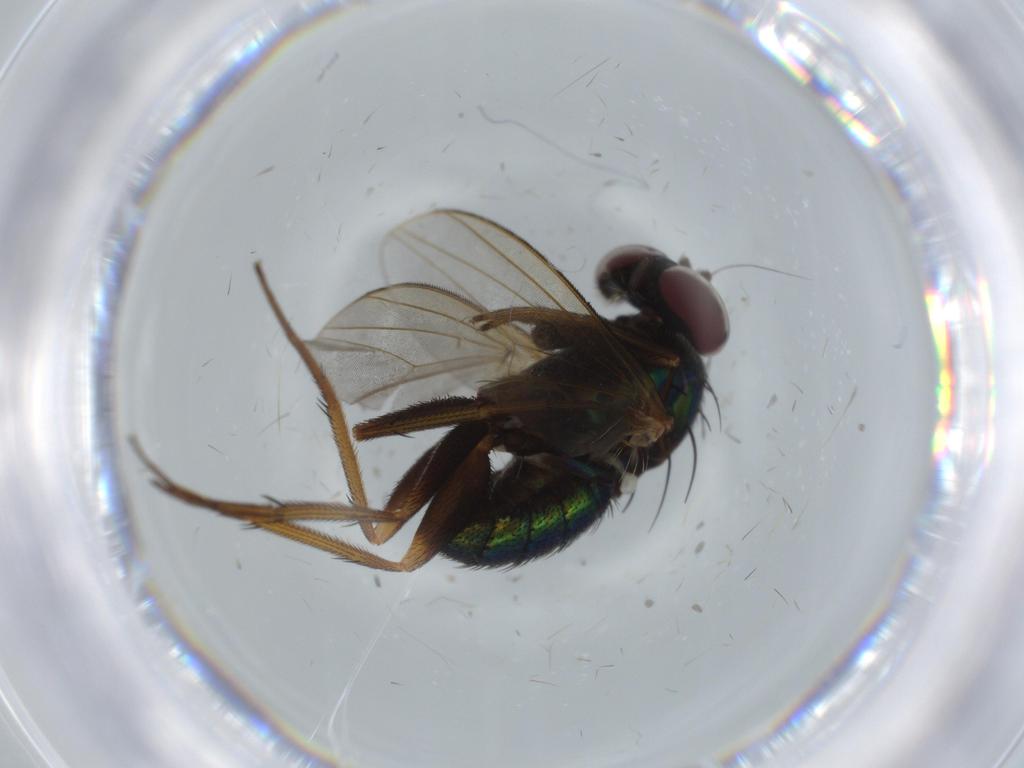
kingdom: Animalia
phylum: Arthropoda
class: Insecta
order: Diptera
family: Dolichopodidae
